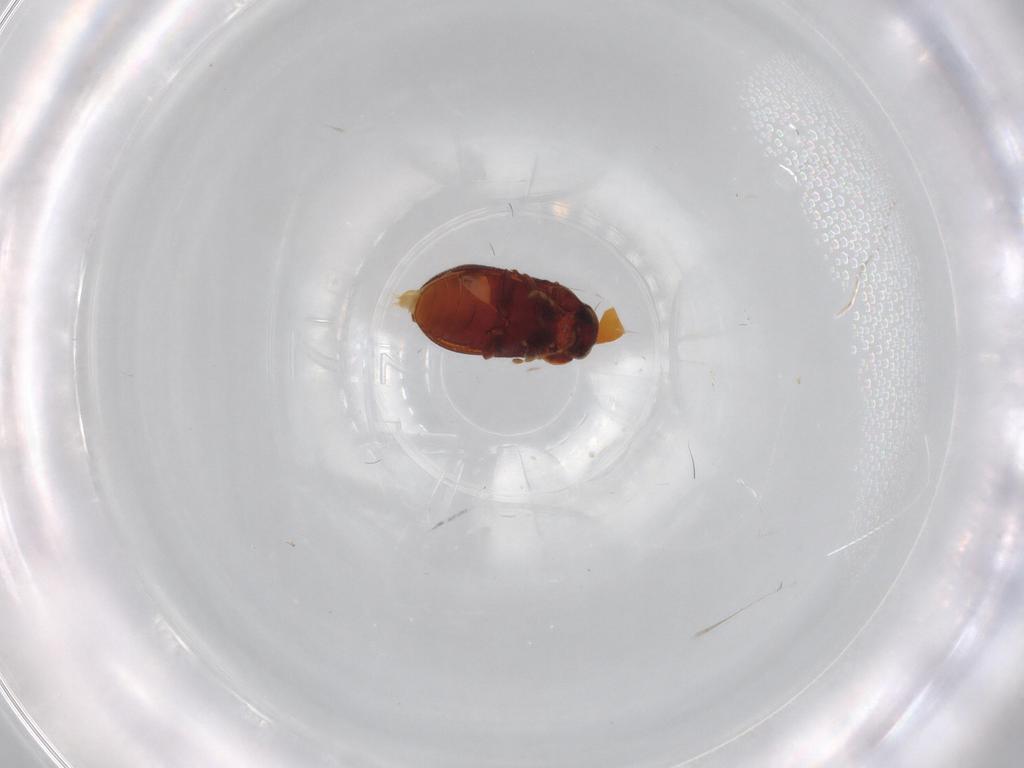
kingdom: Animalia
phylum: Arthropoda
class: Insecta
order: Coleoptera
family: Ptinidae
